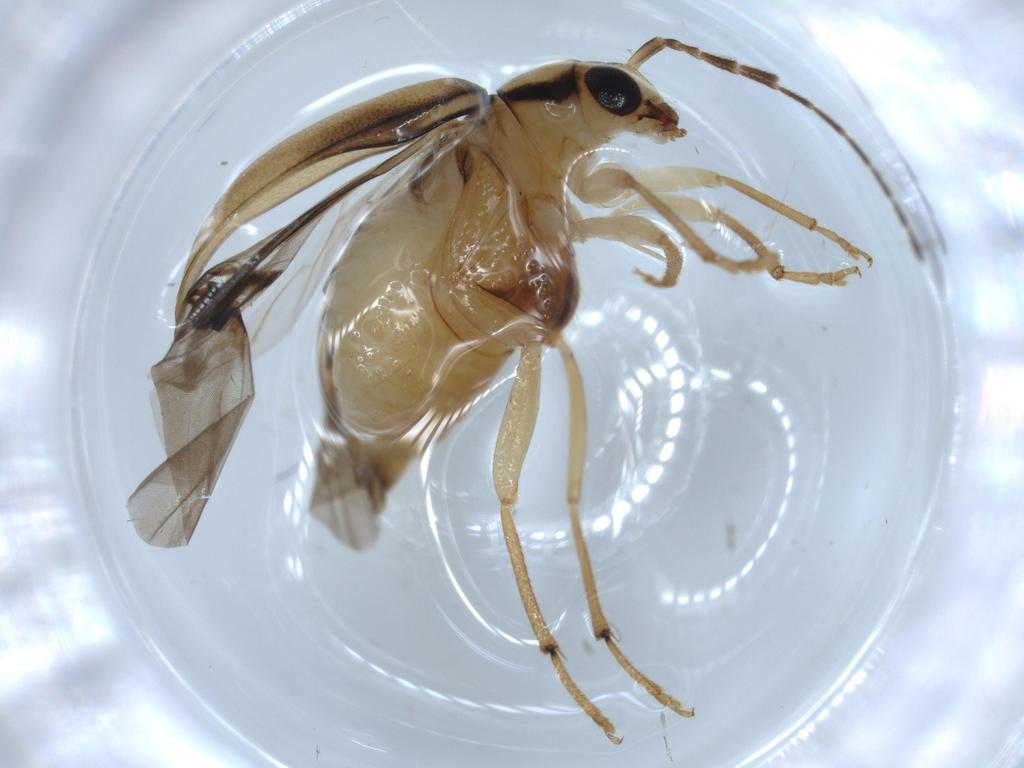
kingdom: Animalia
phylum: Arthropoda
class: Insecta
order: Coleoptera
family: Chrysomelidae
